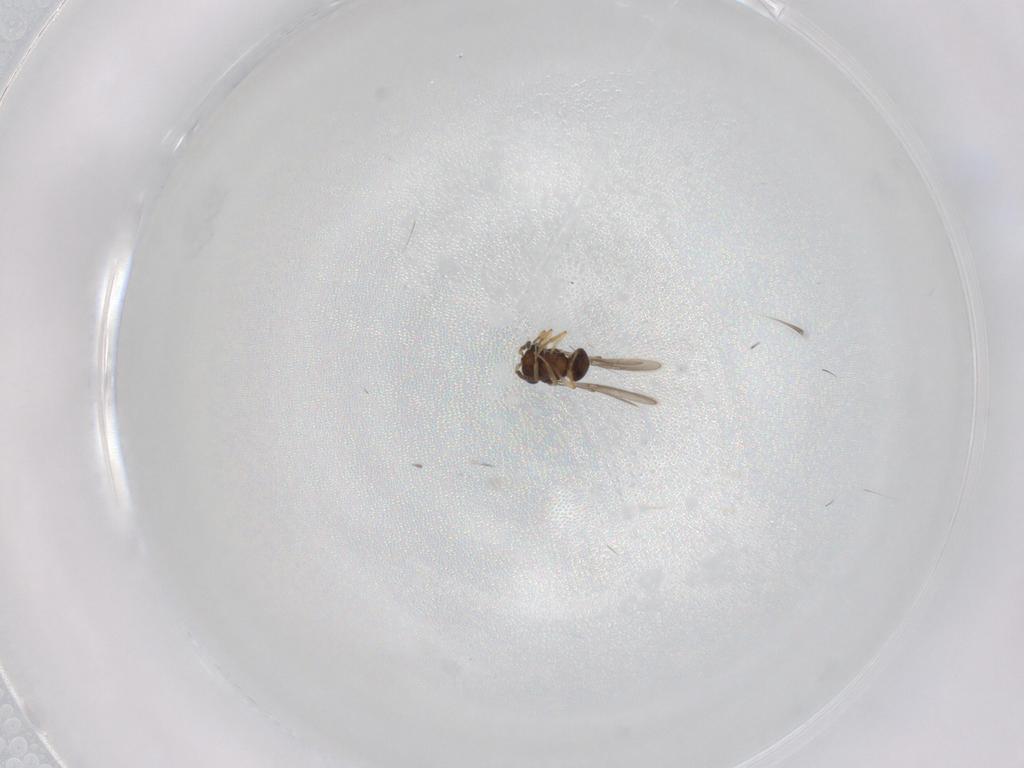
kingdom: Animalia
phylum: Arthropoda
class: Insecta
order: Hymenoptera
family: Scelionidae
